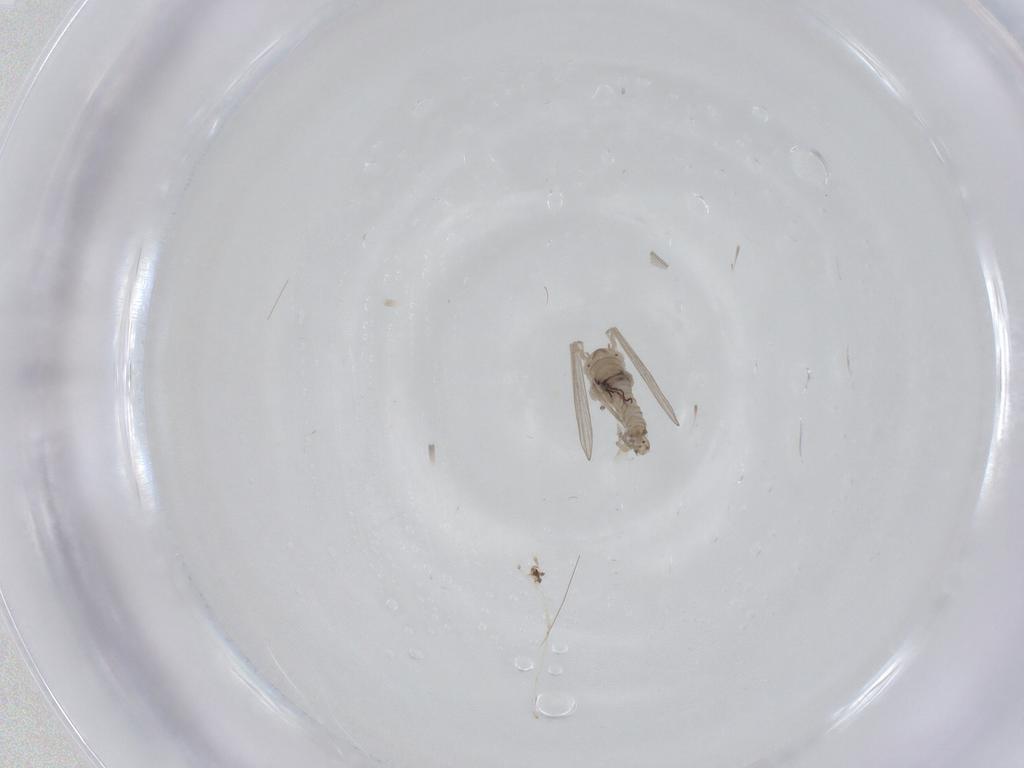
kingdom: Animalia
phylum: Arthropoda
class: Insecta
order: Diptera
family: Psychodidae
